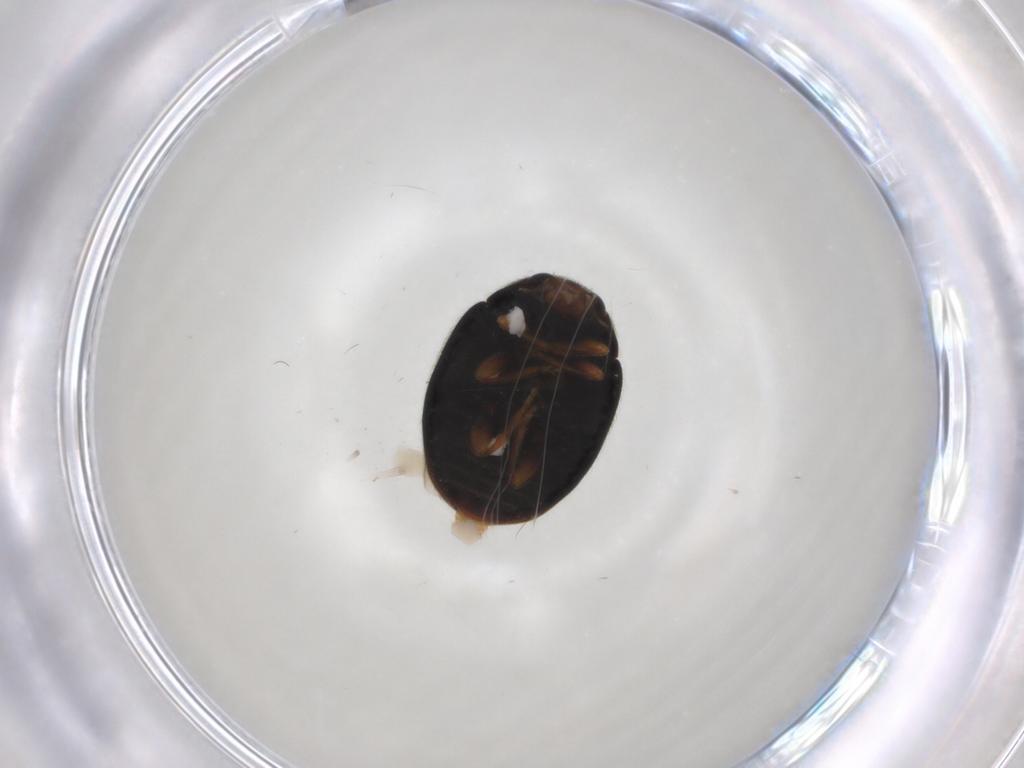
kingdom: Animalia
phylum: Arthropoda
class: Insecta
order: Coleoptera
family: Coccinellidae
